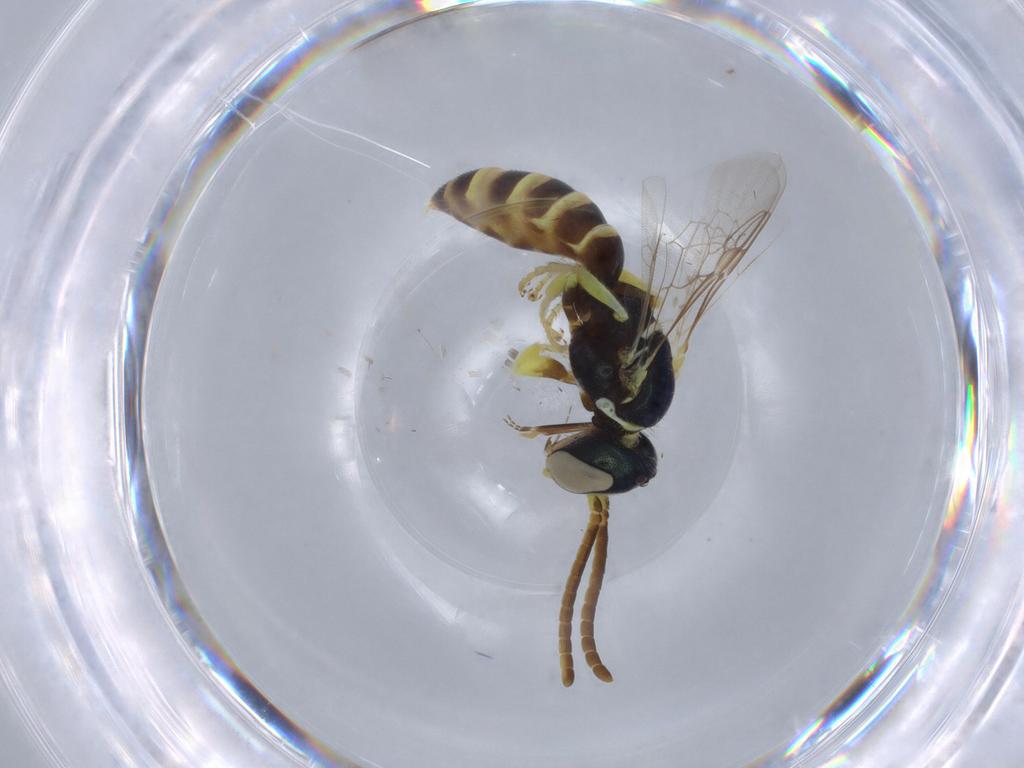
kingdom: Animalia
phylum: Arthropoda
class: Insecta
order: Hymenoptera
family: Halictidae
